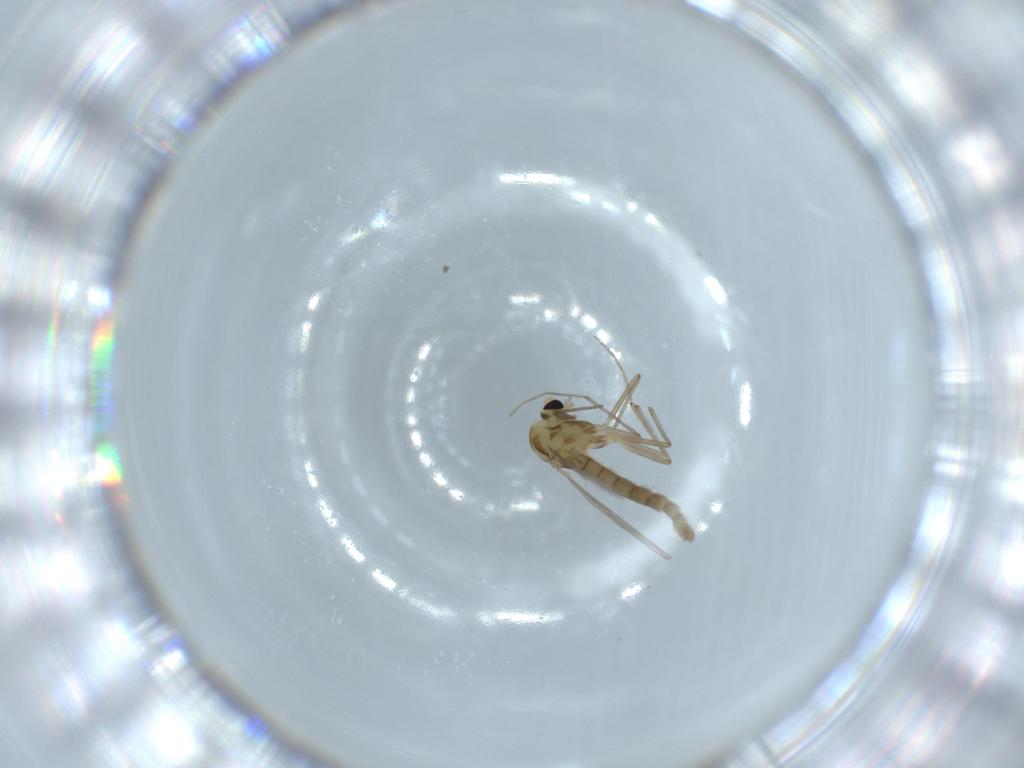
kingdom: Animalia
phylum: Arthropoda
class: Insecta
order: Diptera
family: Chironomidae
